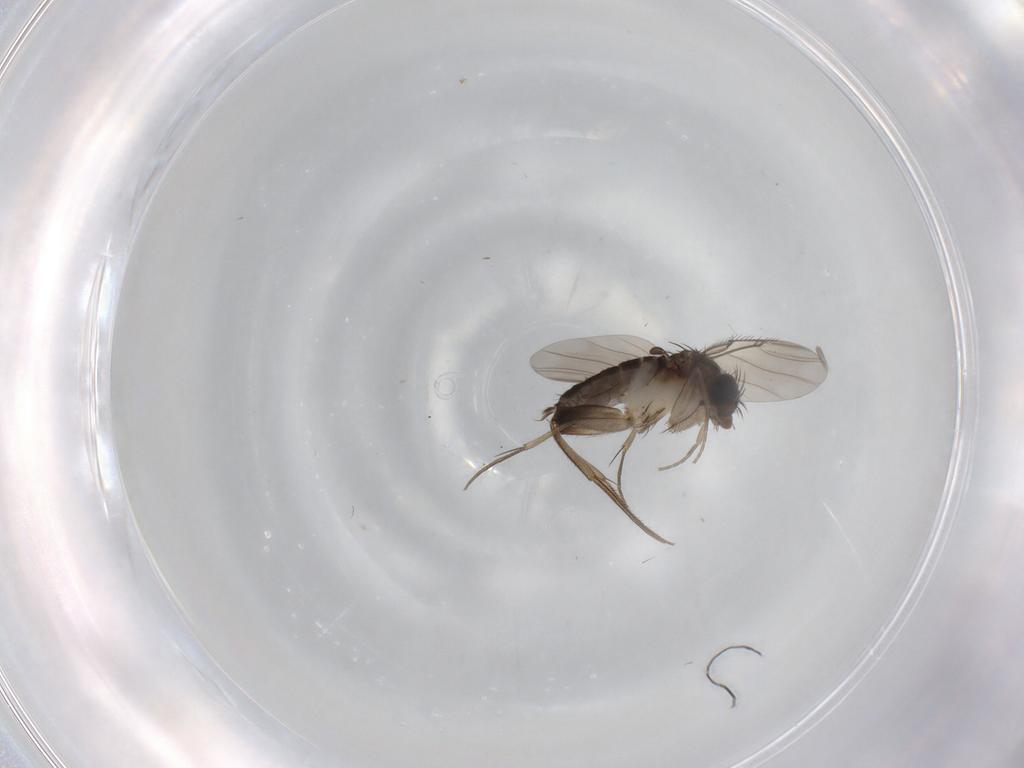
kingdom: Animalia
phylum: Arthropoda
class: Insecta
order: Diptera
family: Phoridae
